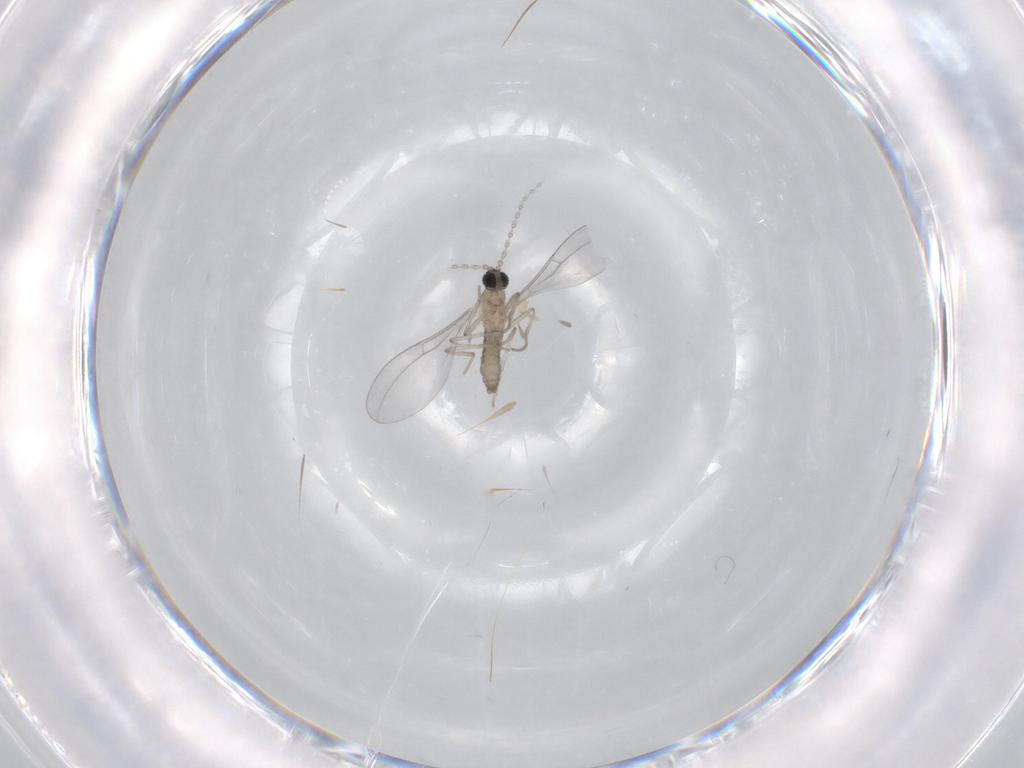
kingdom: Animalia
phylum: Arthropoda
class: Insecta
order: Diptera
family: Cecidomyiidae
